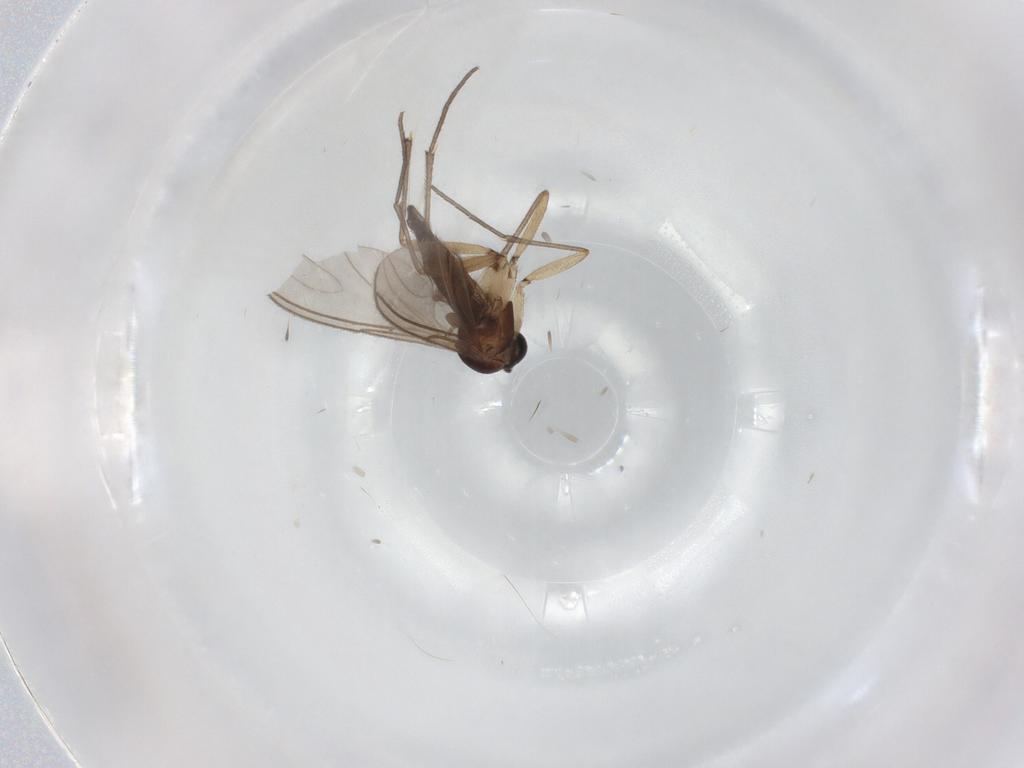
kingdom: Animalia
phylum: Arthropoda
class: Insecta
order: Diptera
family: Sciaridae
